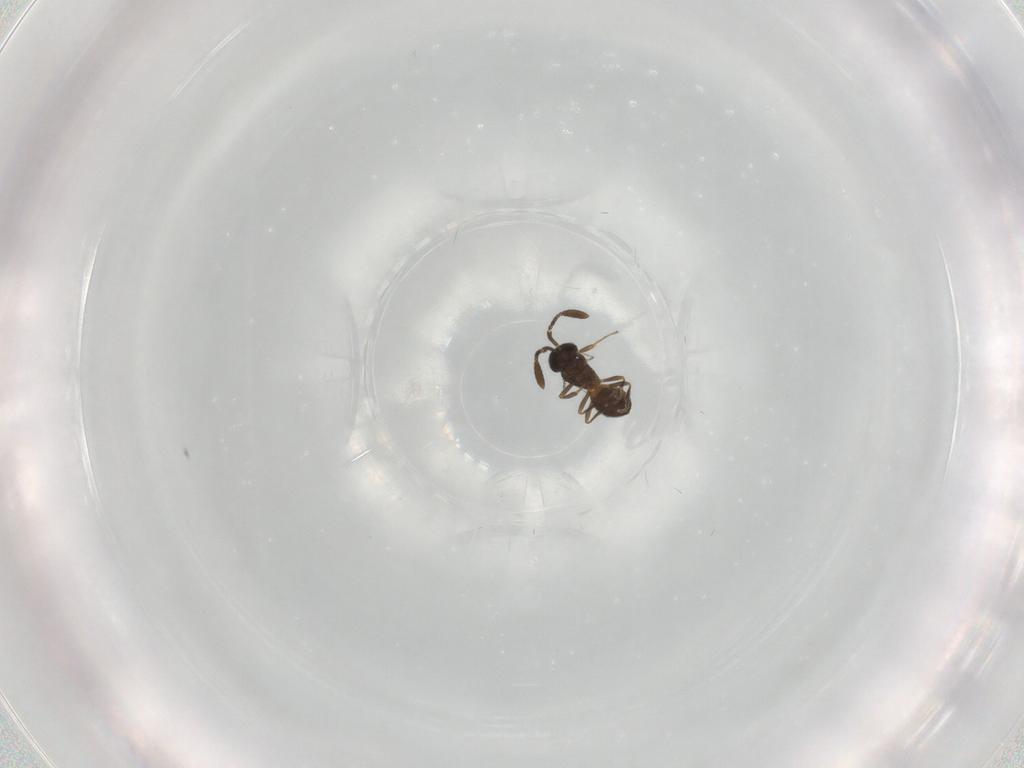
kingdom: Animalia
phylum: Arthropoda
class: Insecta
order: Hymenoptera
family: Scelionidae
